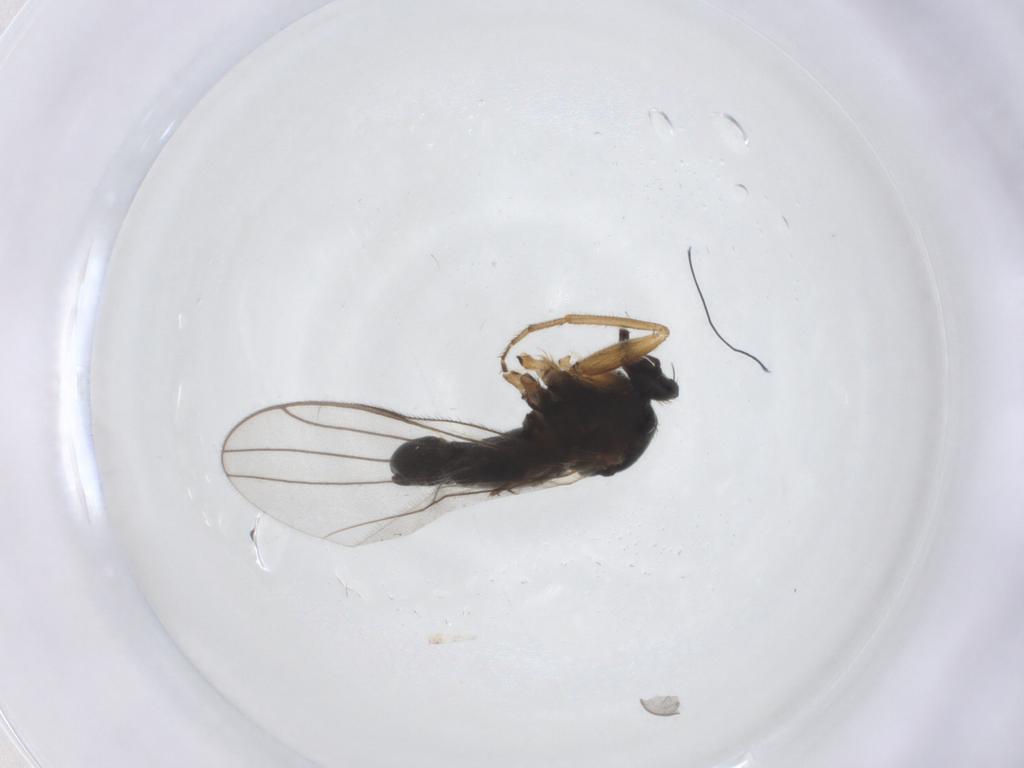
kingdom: Animalia
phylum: Arthropoda
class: Insecta
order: Diptera
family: Hybotidae
